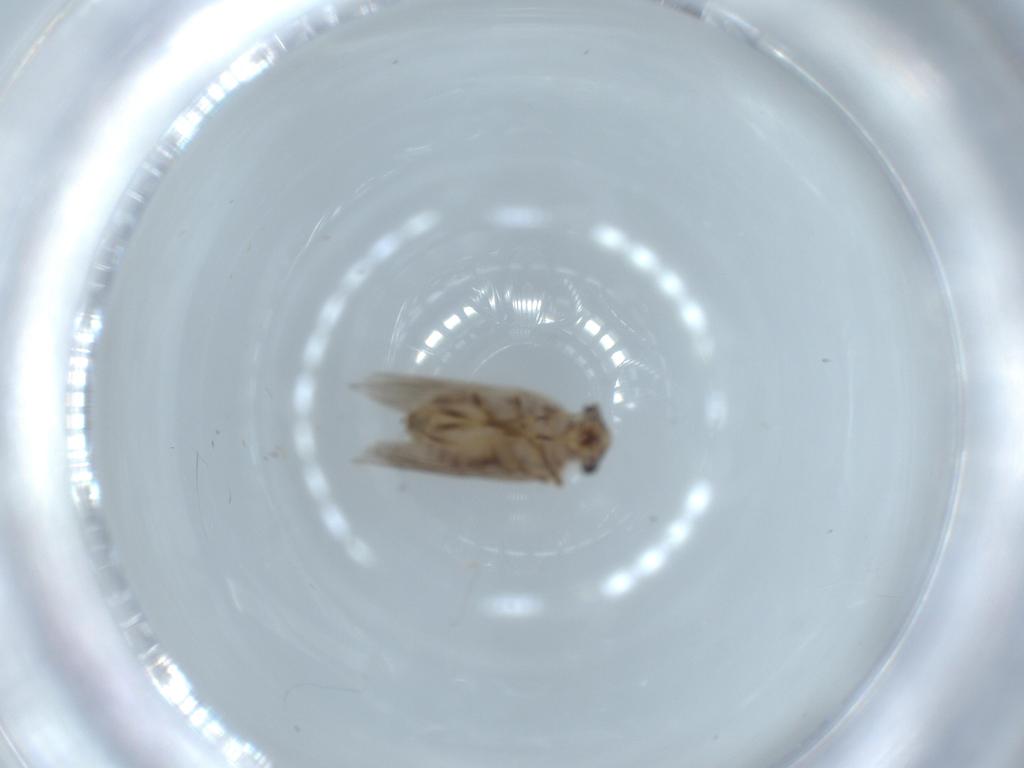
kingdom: Animalia
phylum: Arthropoda
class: Insecta
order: Psocodea
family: Lepidopsocidae
